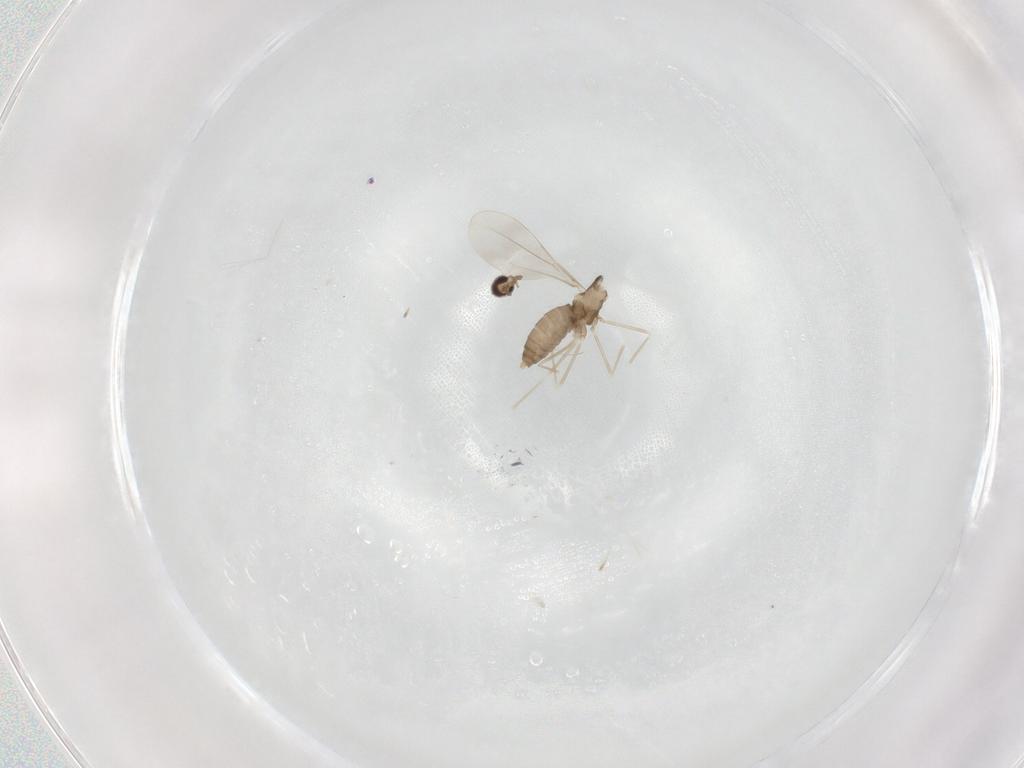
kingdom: Animalia
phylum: Arthropoda
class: Insecta
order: Diptera
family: Cecidomyiidae
